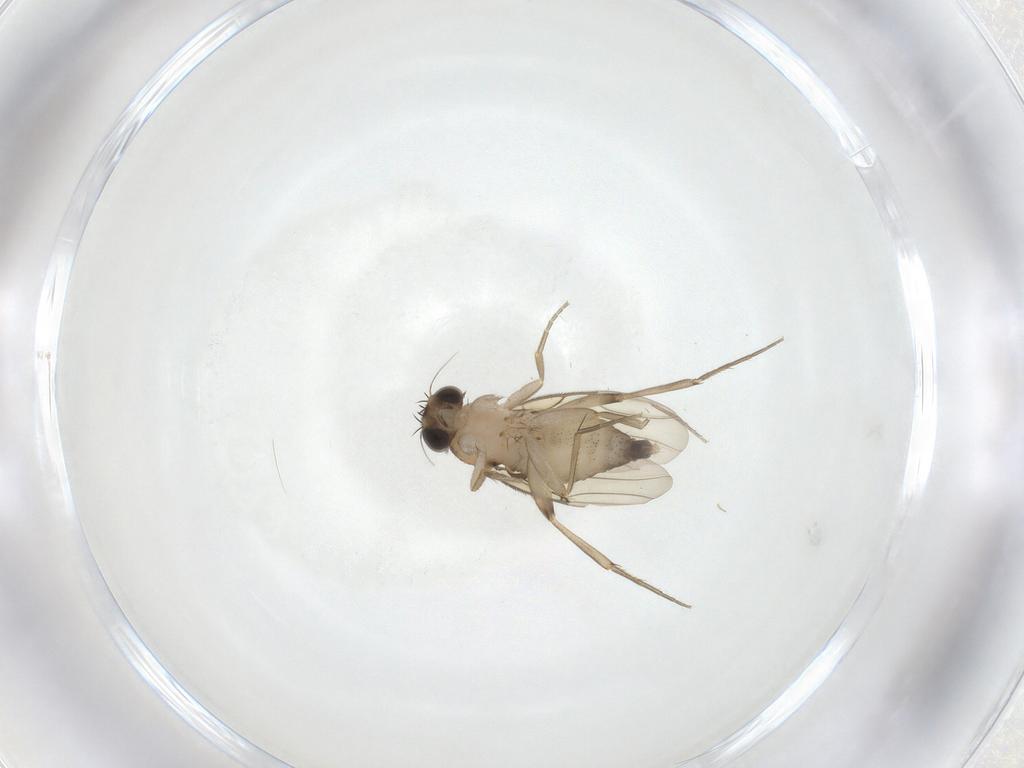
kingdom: Animalia
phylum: Arthropoda
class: Insecta
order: Diptera
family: Phoridae
